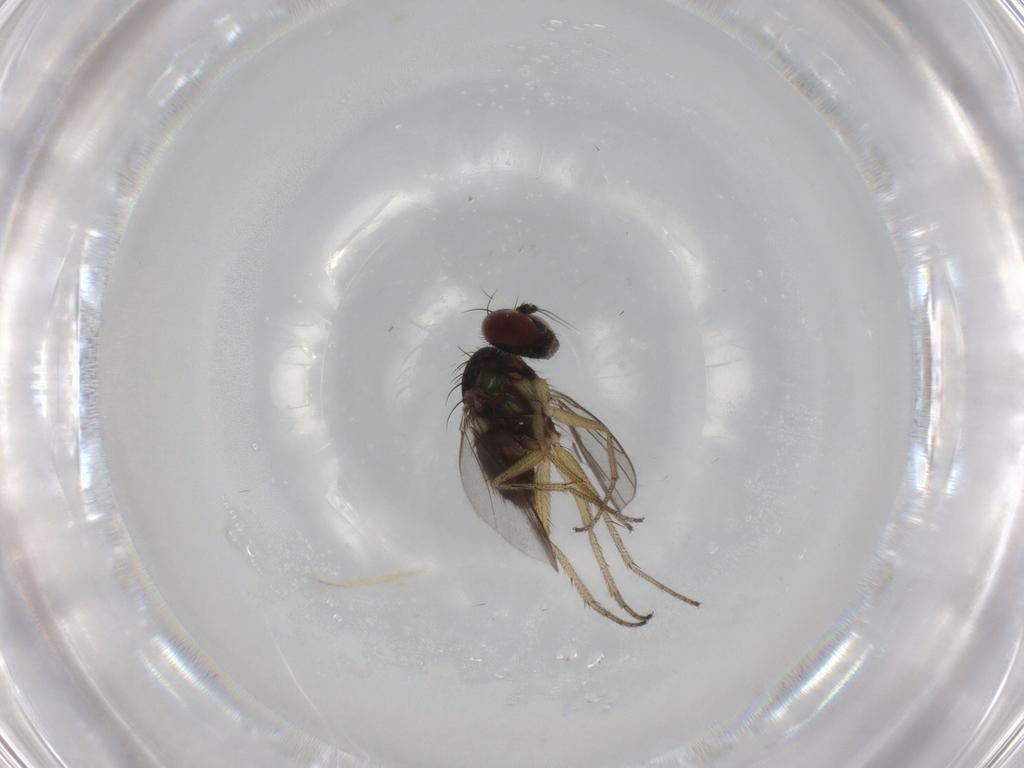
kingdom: Animalia
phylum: Arthropoda
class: Insecta
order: Diptera
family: Dolichopodidae
